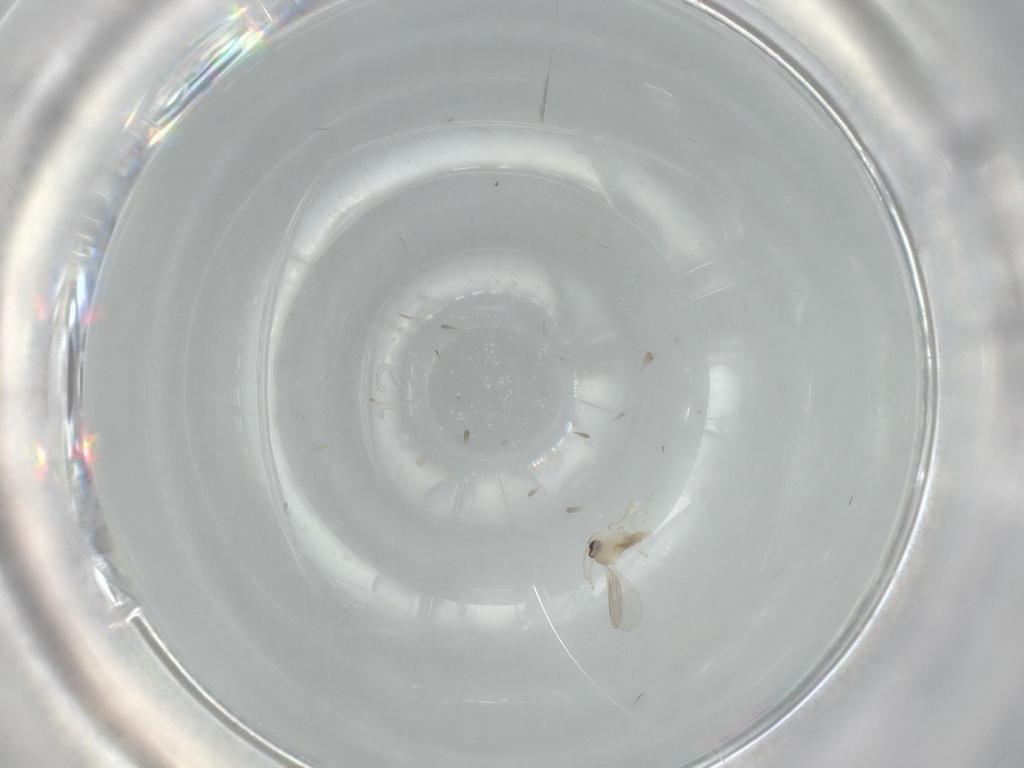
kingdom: Animalia
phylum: Arthropoda
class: Insecta
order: Diptera
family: Cecidomyiidae
